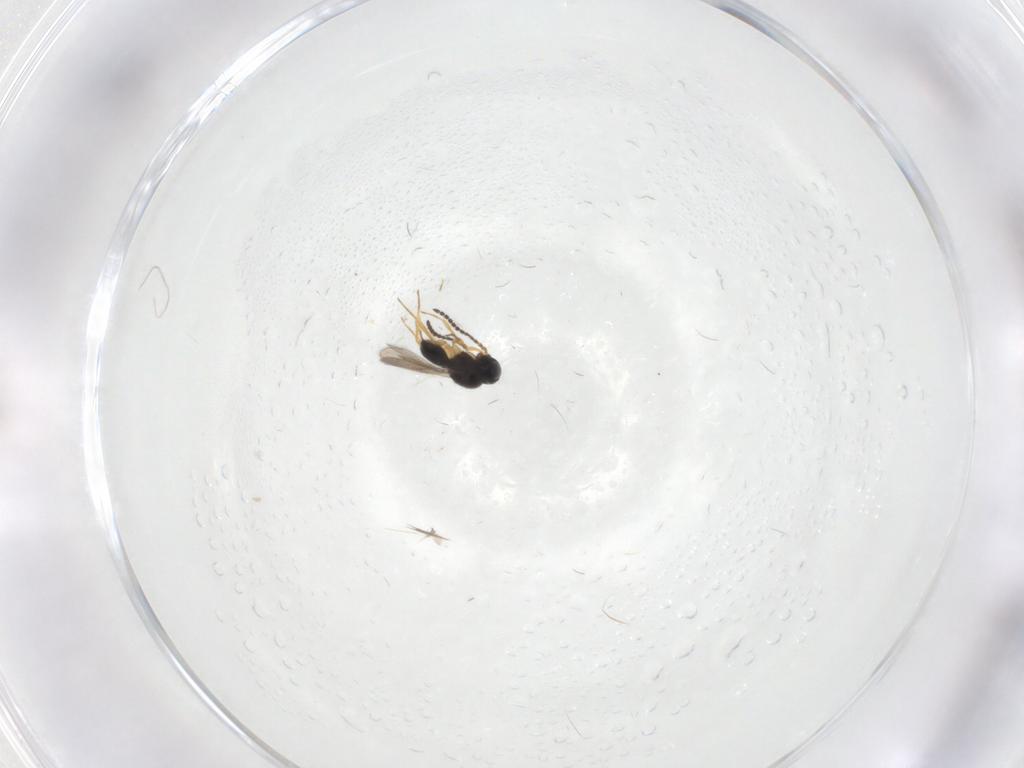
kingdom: Animalia
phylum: Arthropoda
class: Insecta
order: Hymenoptera
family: Scelionidae
